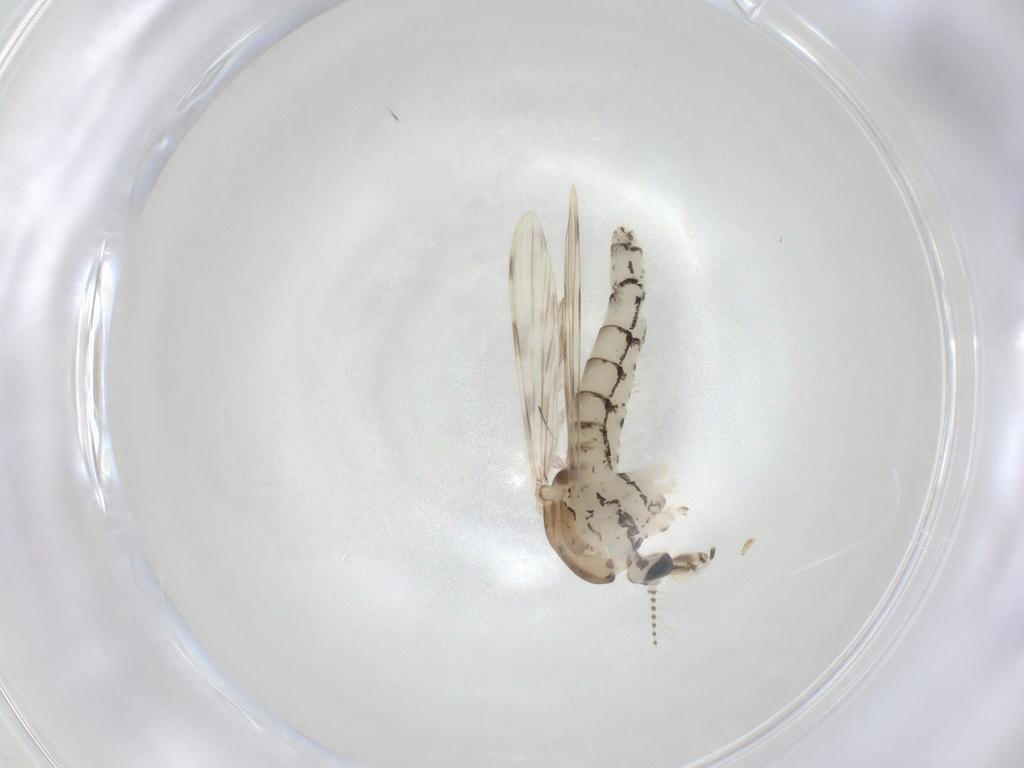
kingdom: Animalia
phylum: Arthropoda
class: Insecta
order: Diptera
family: Chaoboridae
